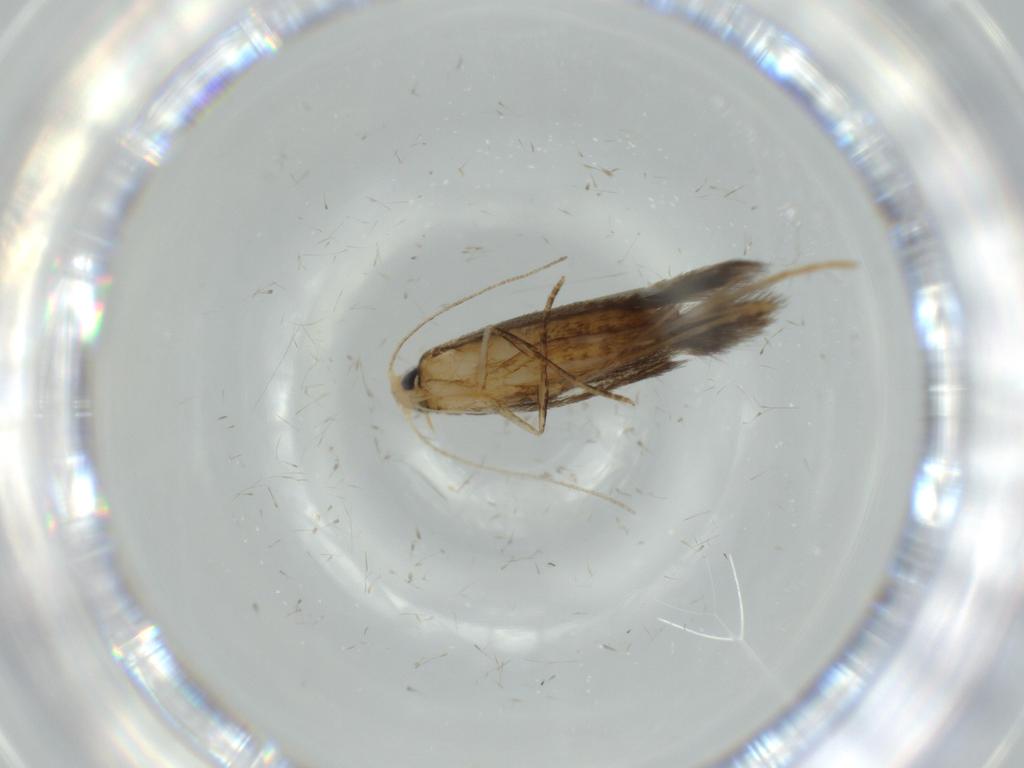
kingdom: Animalia
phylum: Arthropoda
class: Insecta
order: Lepidoptera
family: Tischeriidae
